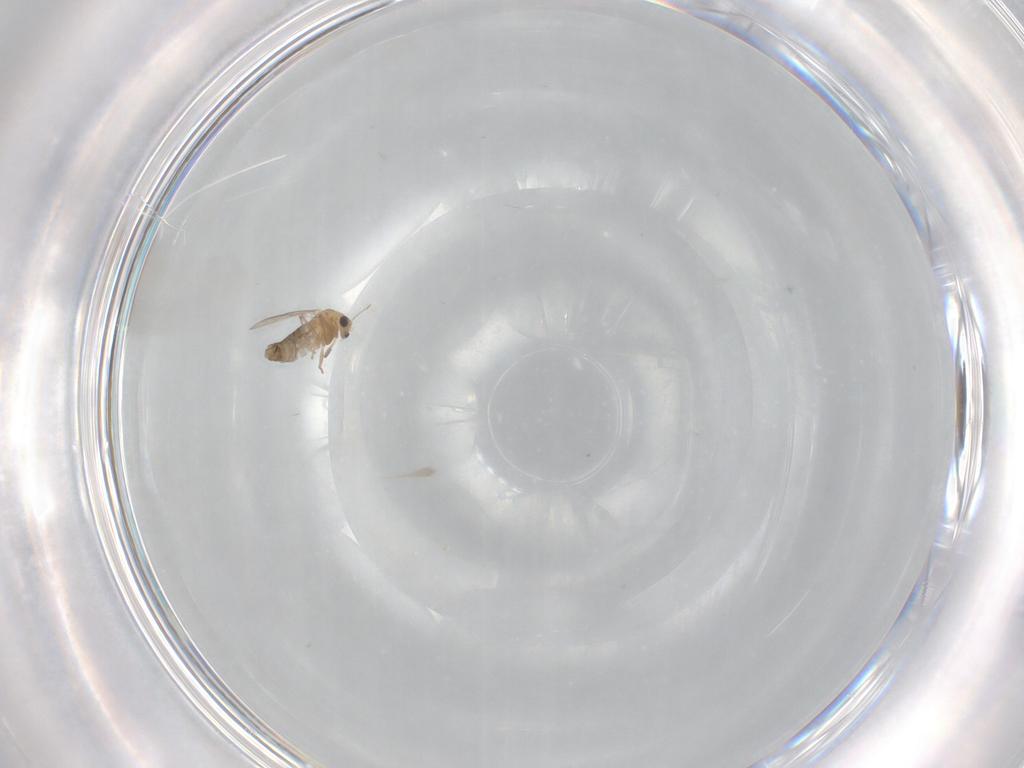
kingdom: Animalia
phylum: Arthropoda
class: Insecta
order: Diptera
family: Chironomidae
